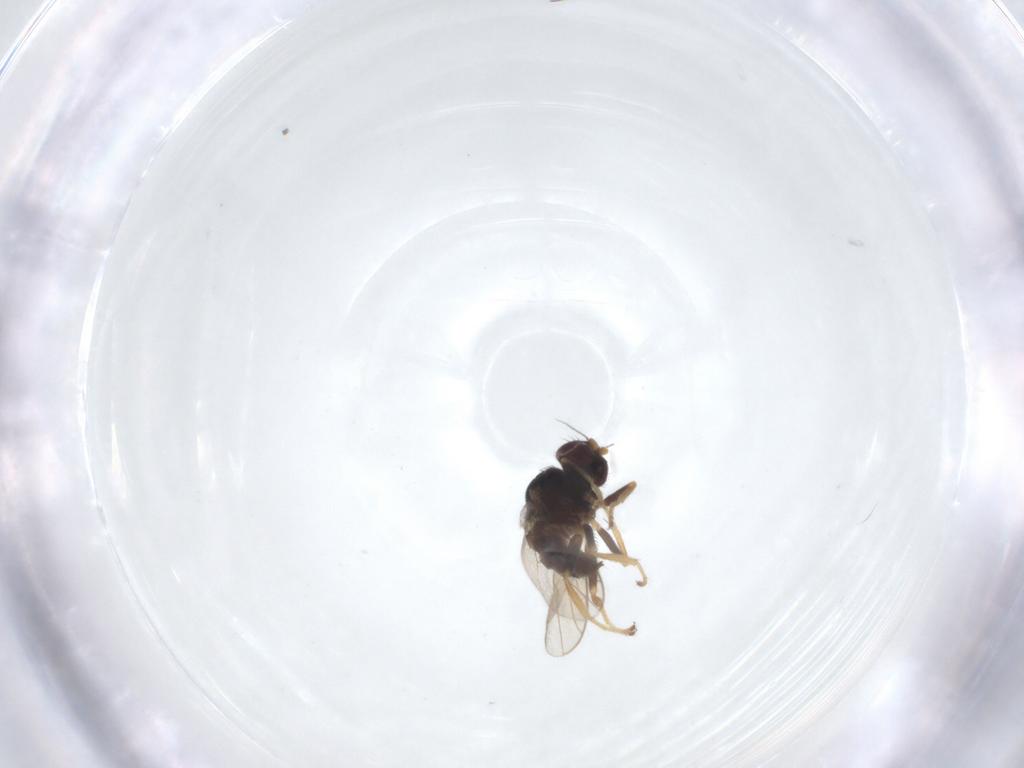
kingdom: Animalia
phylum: Arthropoda
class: Insecta
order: Diptera
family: Chloropidae
